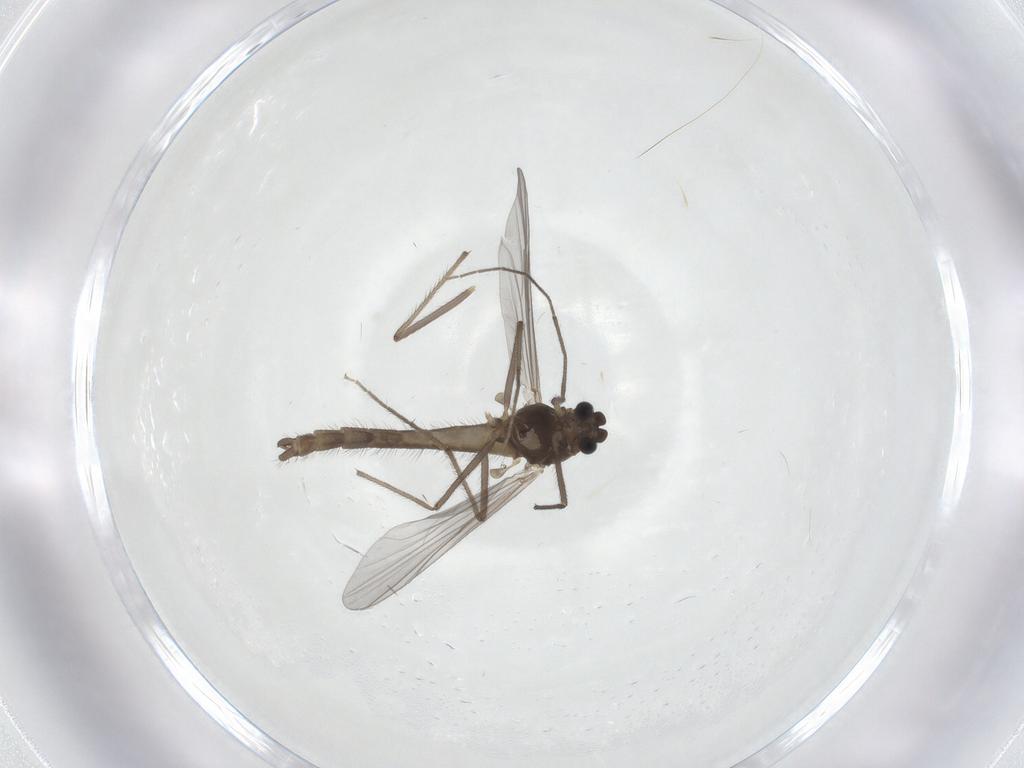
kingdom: Animalia
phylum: Arthropoda
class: Insecta
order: Diptera
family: Chironomidae
